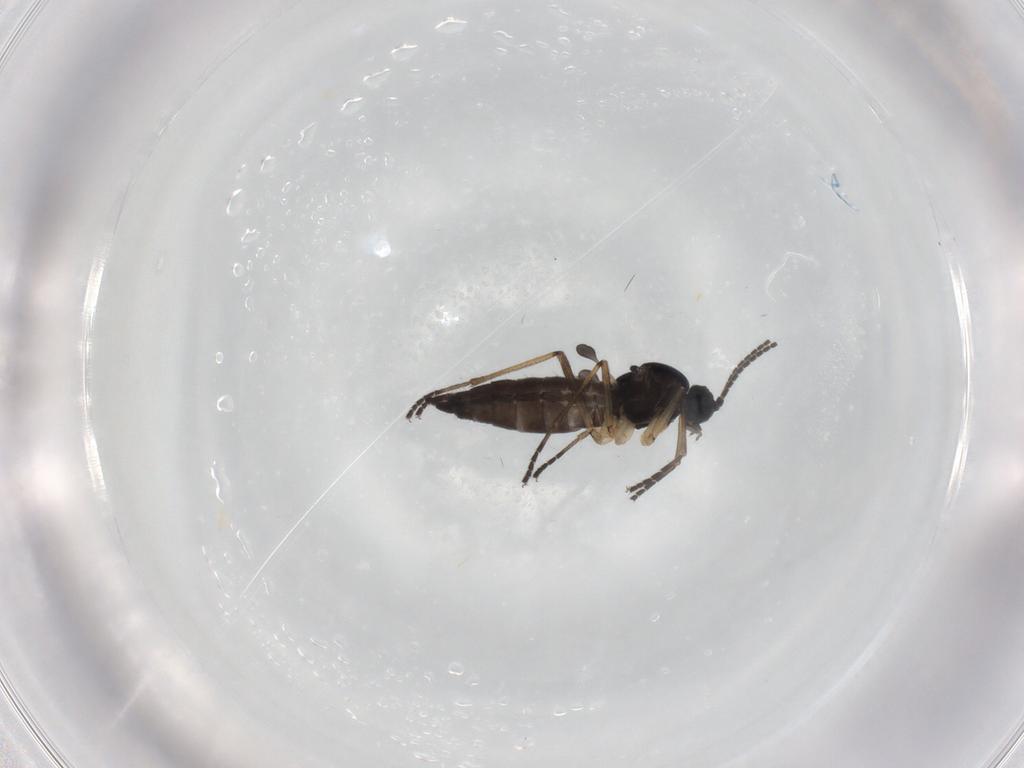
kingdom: Animalia
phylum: Arthropoda
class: Insecta
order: Diptera
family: Sciaridae
